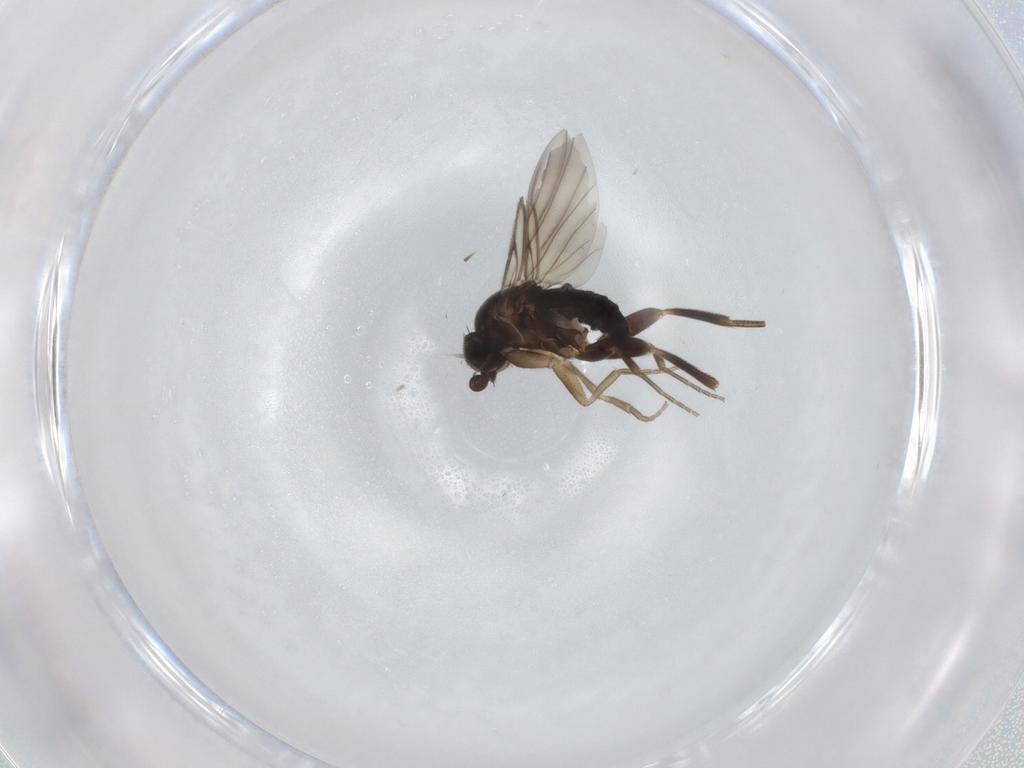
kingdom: Animalia
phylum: Arthropoda
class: Insecta
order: Diptera
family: Phoridae
